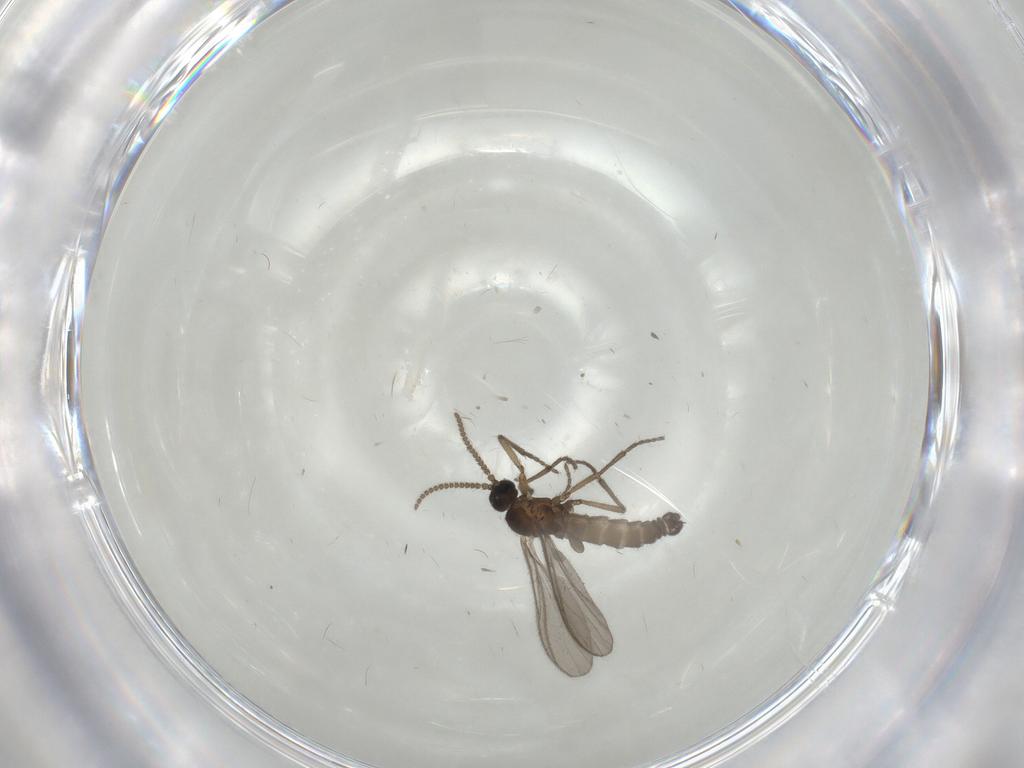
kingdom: Animalia
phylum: Arthropoda
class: Insecta
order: Diptera
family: Sciaridae
